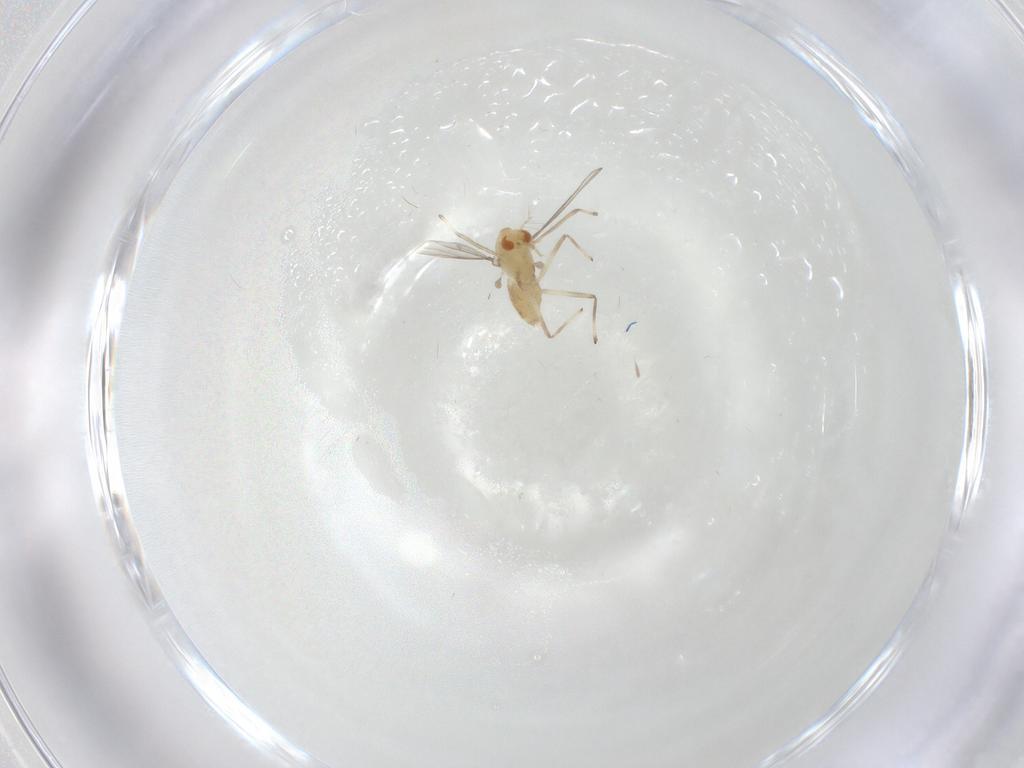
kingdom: Animalia
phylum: Arthropoda
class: Insecta
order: Diptera
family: Chironomidae
